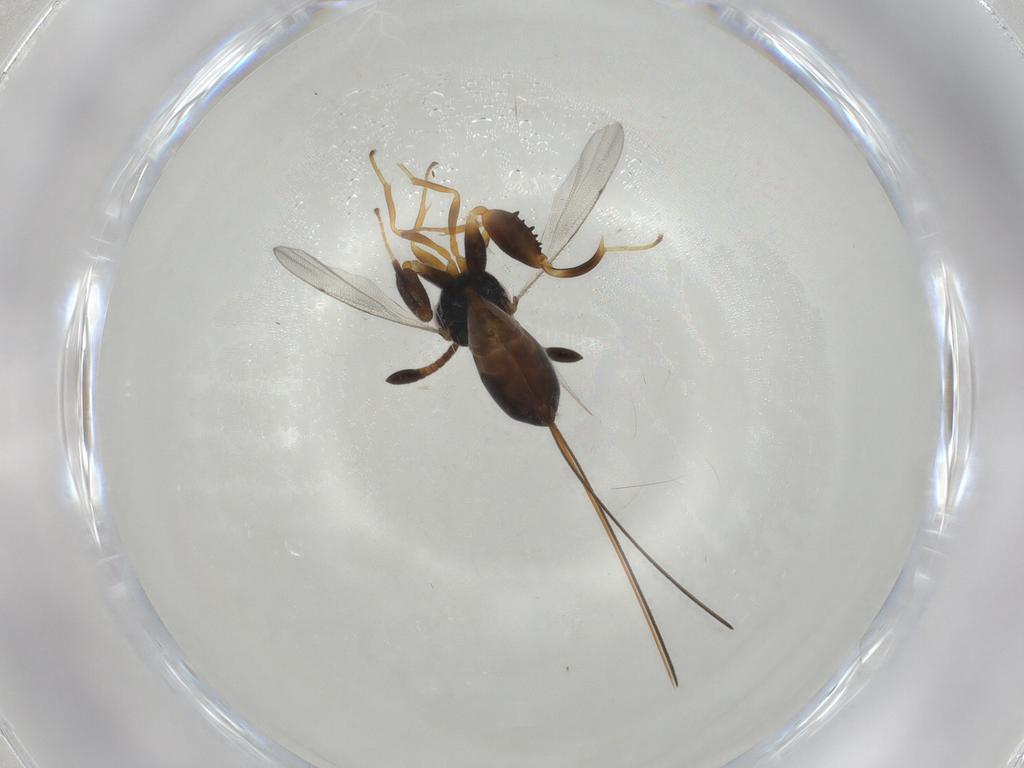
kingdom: Animalia
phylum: Arthropoda
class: Insecta
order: Hymenoptera
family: Torymidae
